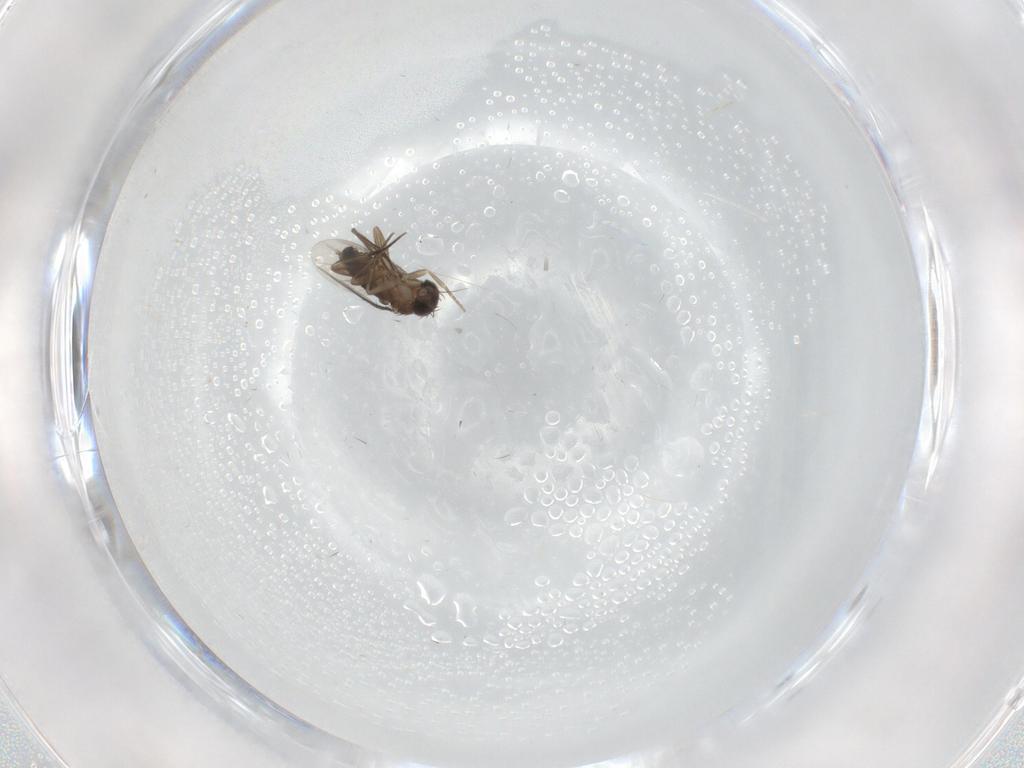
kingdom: Animalia
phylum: Arthropoda
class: Insecta
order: Diptera
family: Phoridae
